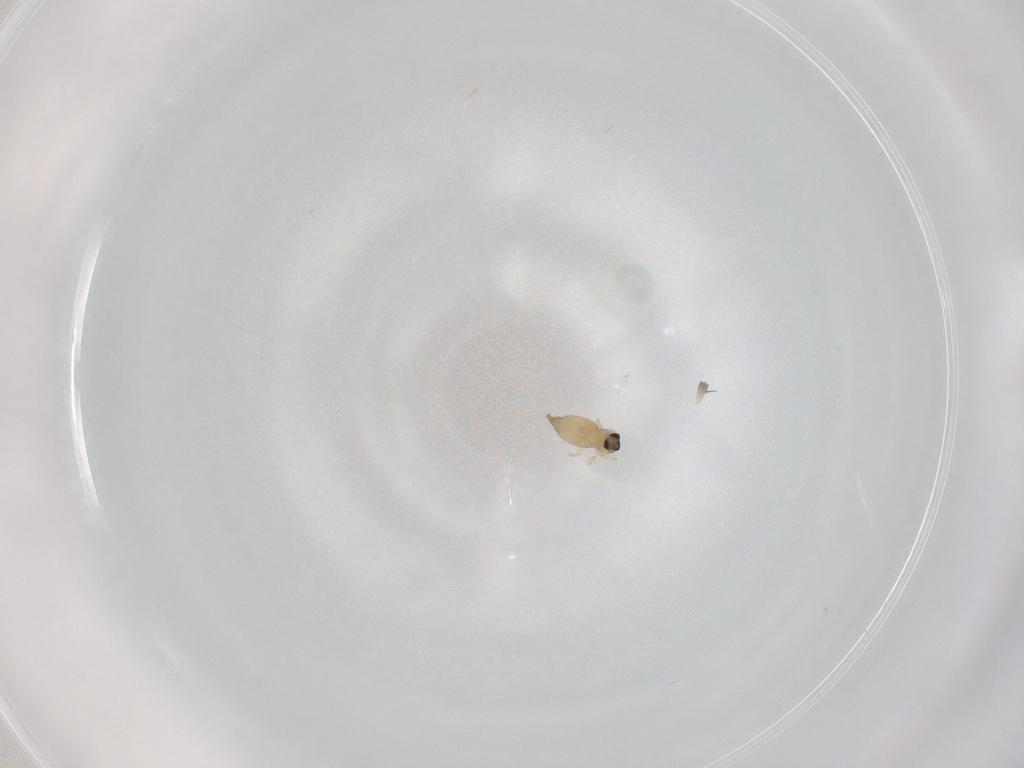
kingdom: Animalia
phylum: Arthropoda
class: Insecta
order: Diptera
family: Cecidomyiidae
